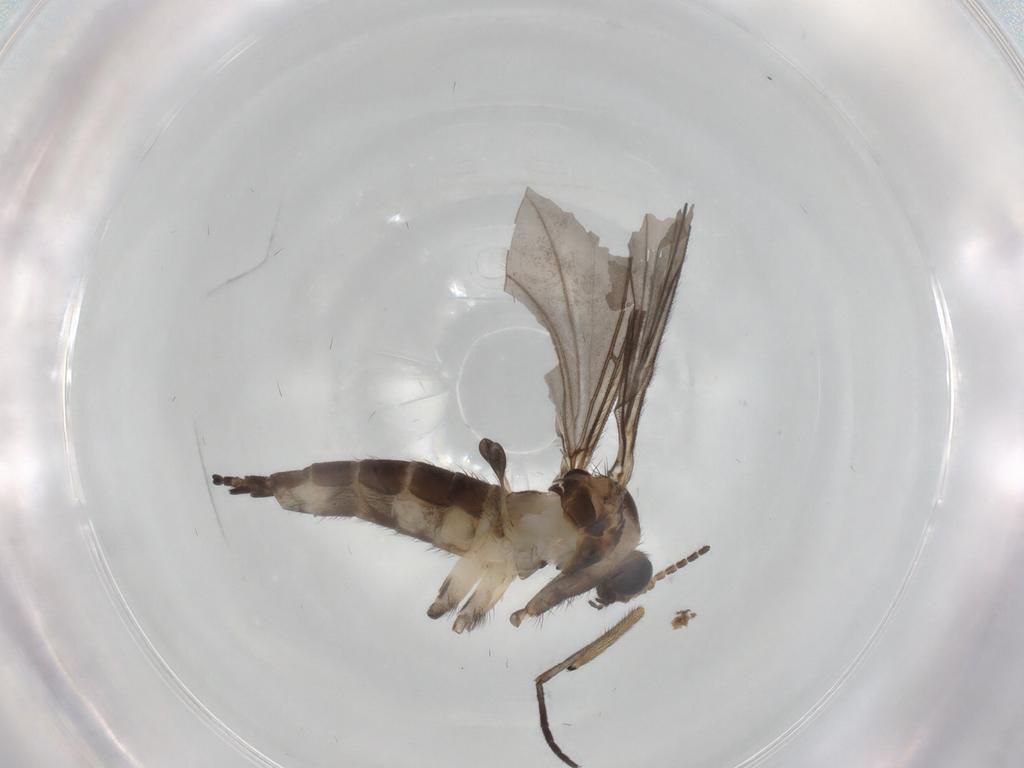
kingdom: Animalia
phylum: Arthropoda
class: Insecta
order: Diptera
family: Sciaridae
